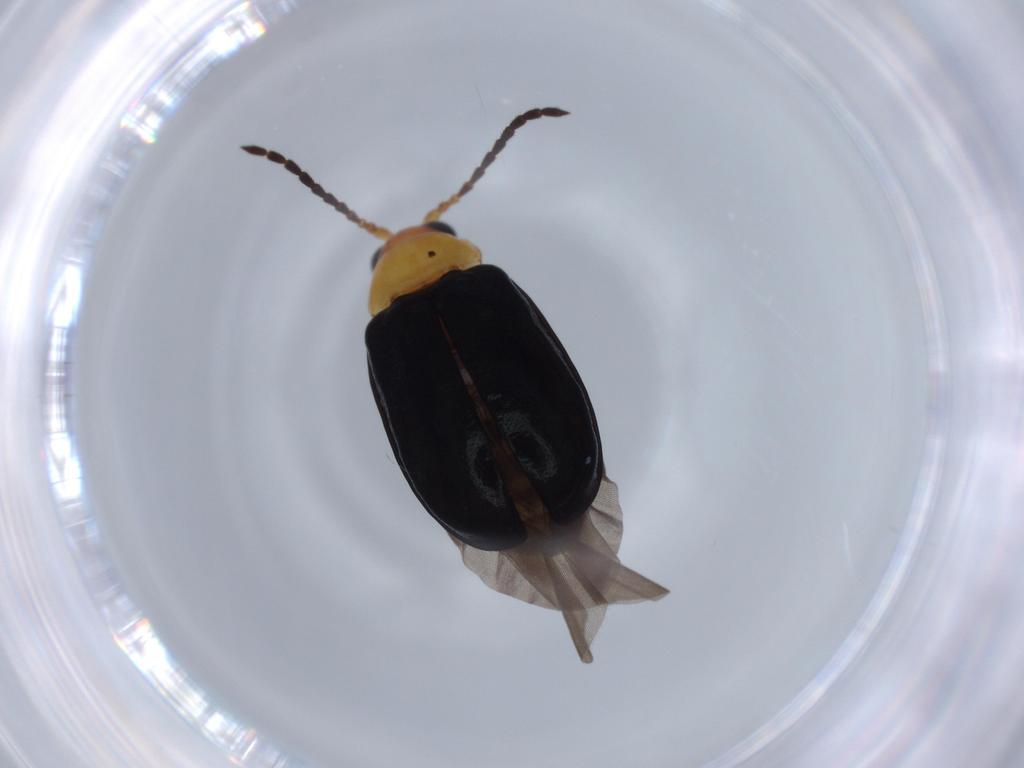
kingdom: Animalia
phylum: Arthropoda
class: Insecta
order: Coleoptera
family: Chrysomelidae
